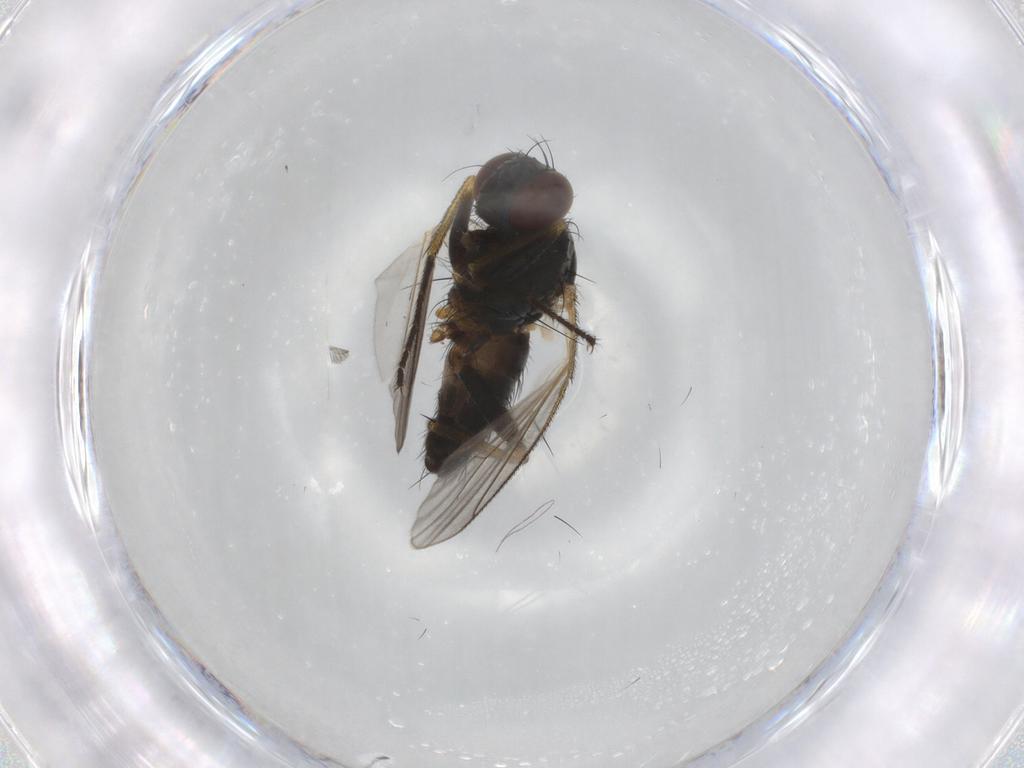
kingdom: Animalia
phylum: Arthropoda
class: Insecta
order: Diptera
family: Muscidae
